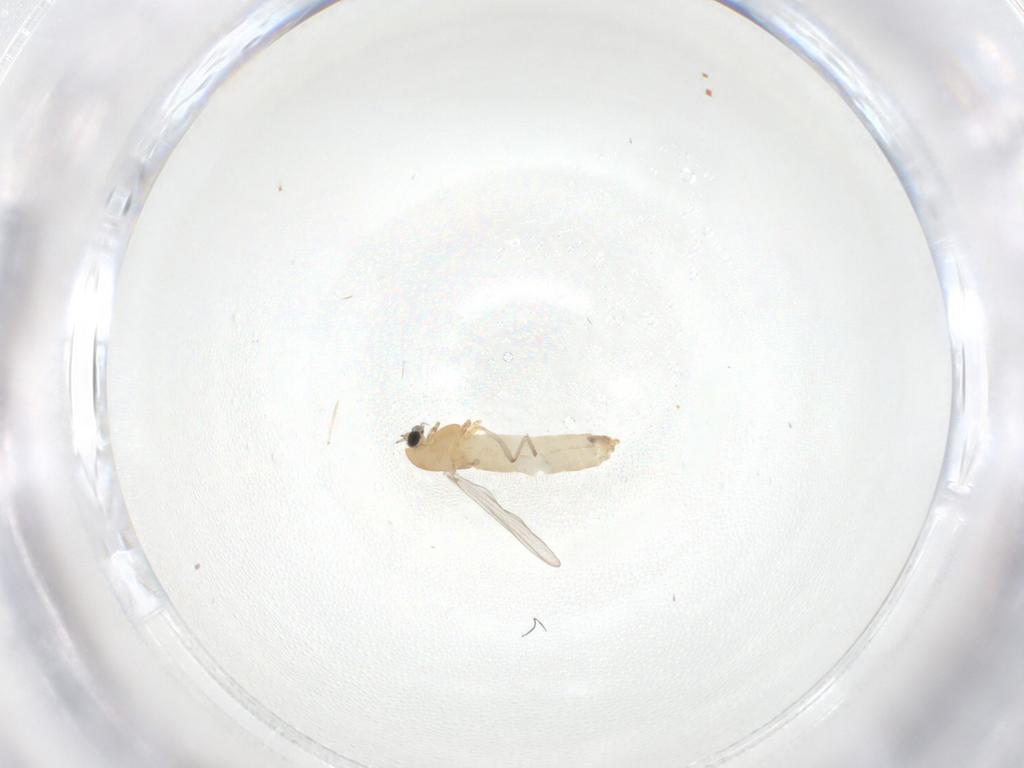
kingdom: Animalia
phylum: Arthropoda
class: Insecta
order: Diptera
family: Chironomidae
